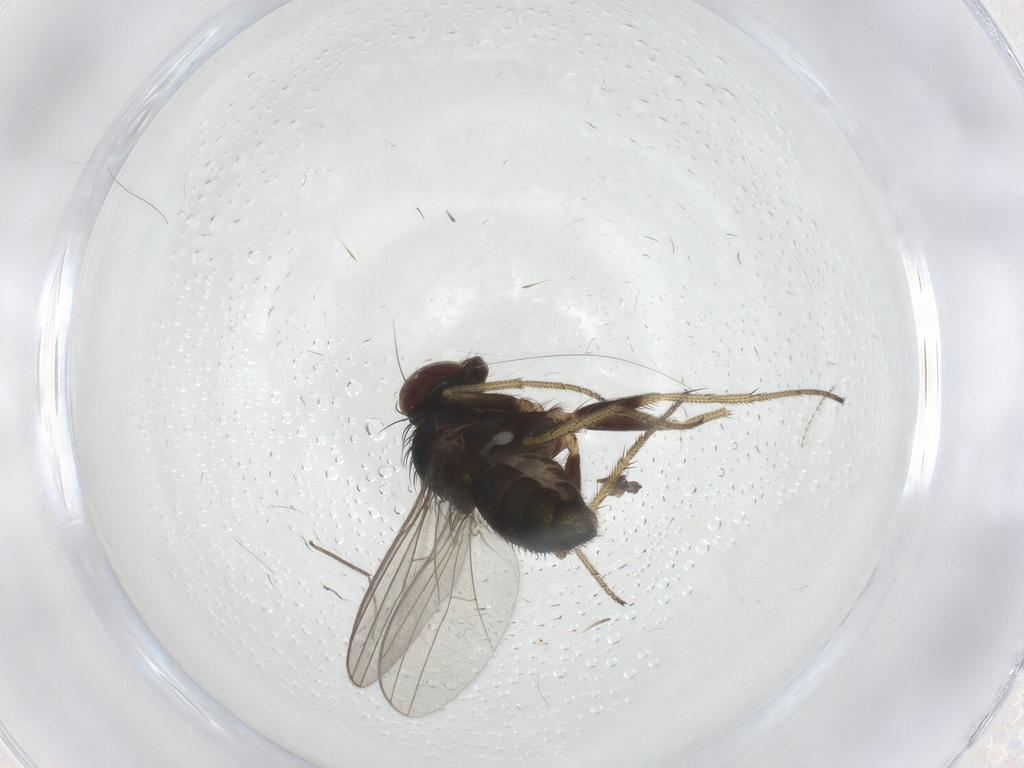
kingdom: Animalia
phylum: Arthropoda
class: Insecta
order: Diptera
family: Chironomidae
